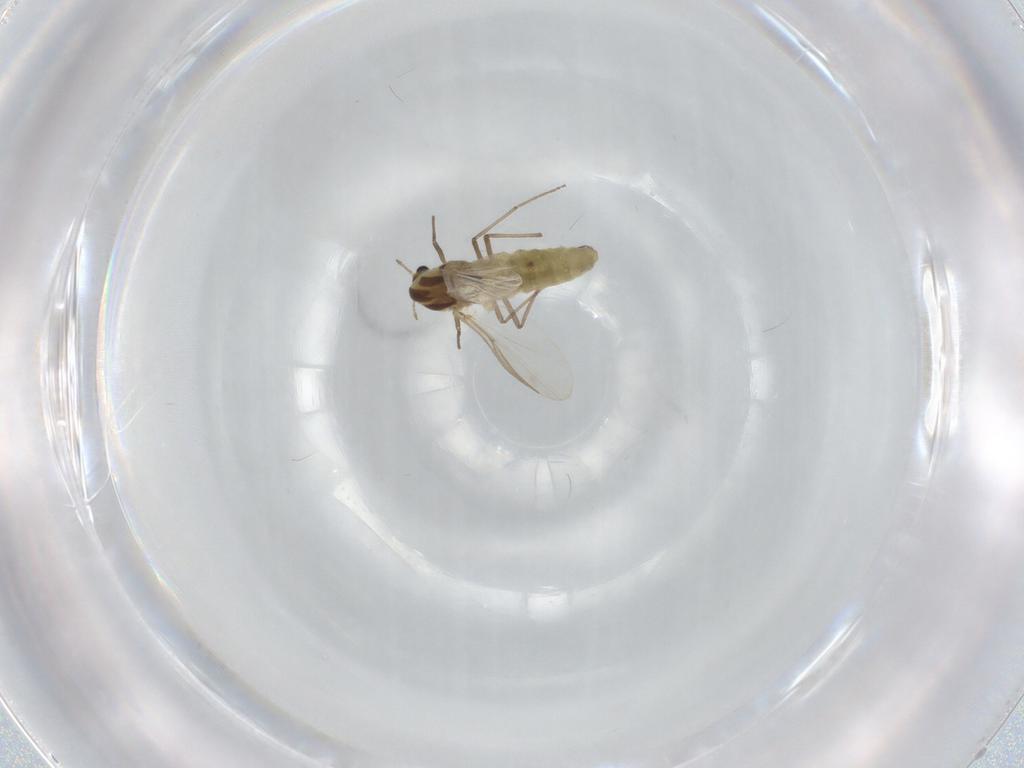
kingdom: Animalia
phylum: Arthropoda
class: Insecta
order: Diptera
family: Chironomidae
